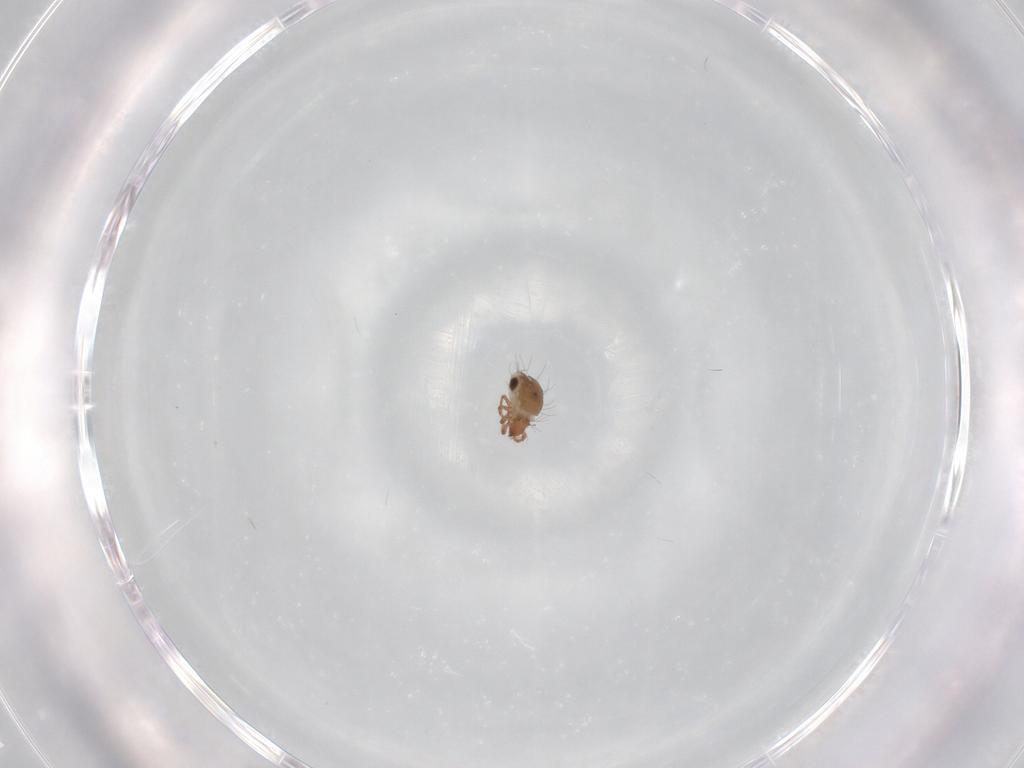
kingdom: Animalia
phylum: Arthropoda
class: Arachnida
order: Sarcoptiformes
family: Humerobatidae
